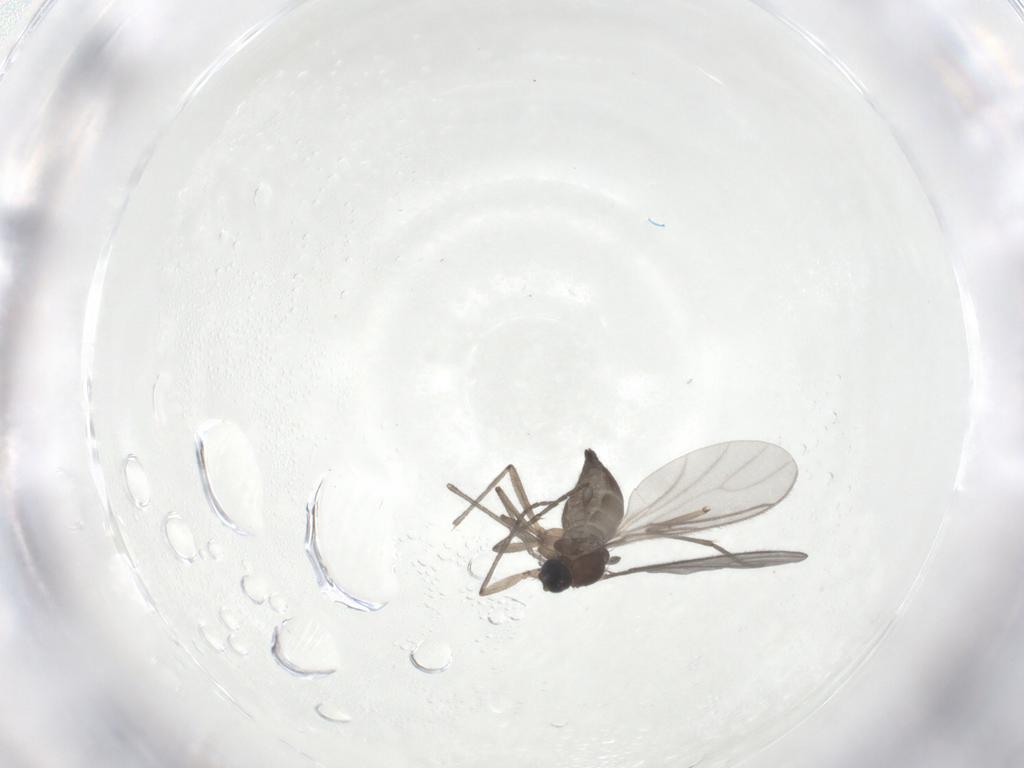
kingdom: Animalia
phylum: Arthropoda
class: Insecta
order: Diptera
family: Sciaridae
